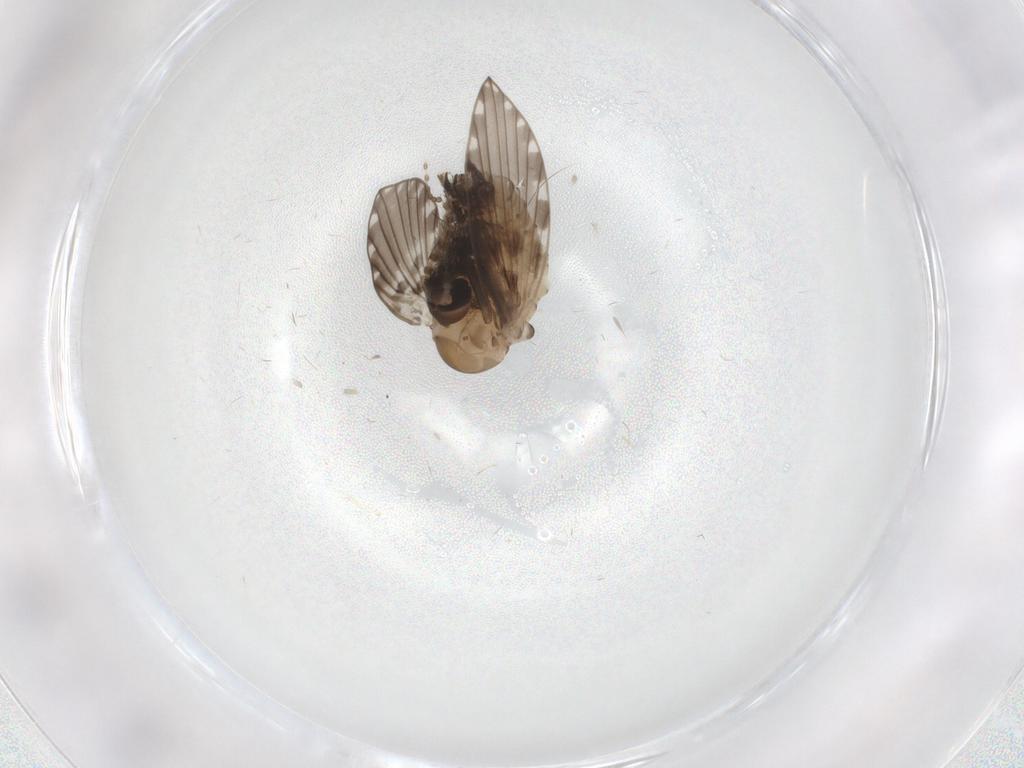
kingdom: Animalia
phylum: Arthropoda
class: Insecta
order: Diptera
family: Psychodidae
